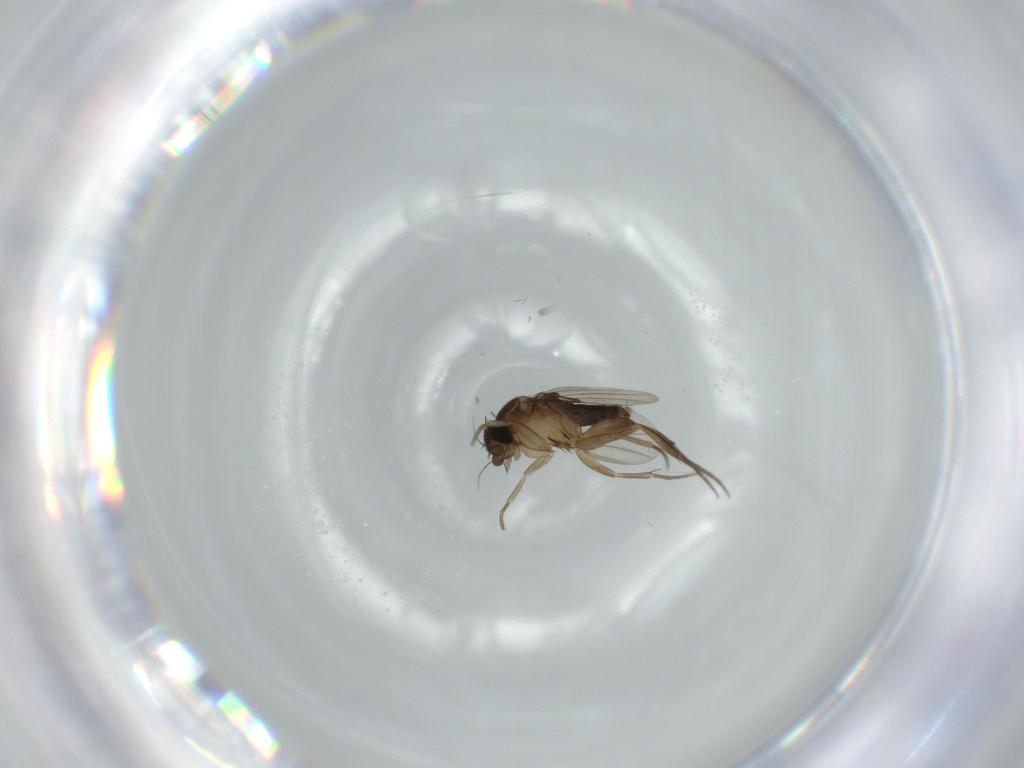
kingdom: Animalia
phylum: Arthropoda
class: Insecta
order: Diptera
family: Phoridae
